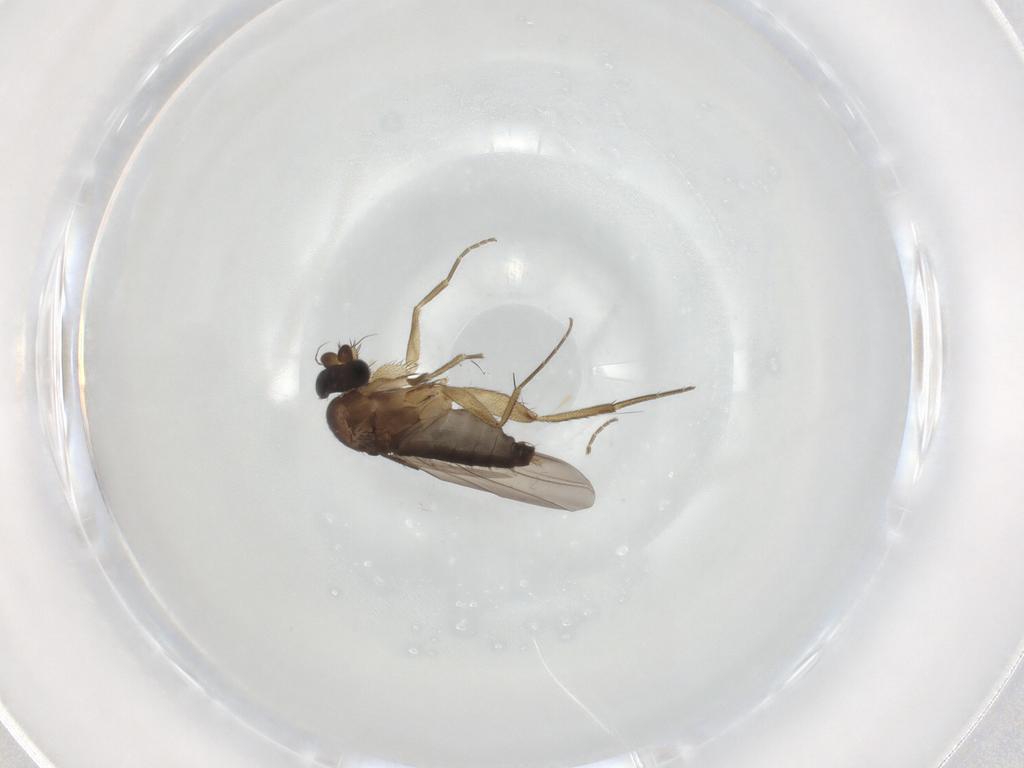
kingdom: Animalia
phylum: Arthropoda
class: Insecta
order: Diptera
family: Phoridae
